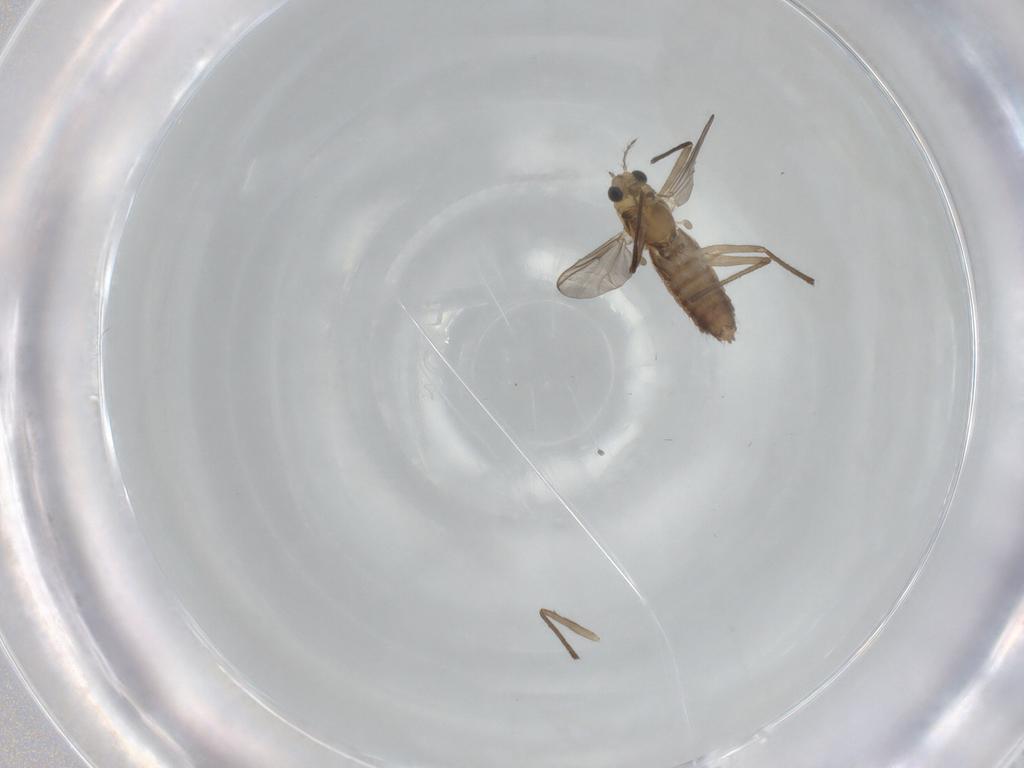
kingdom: Animalia
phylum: Arthropoda
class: Insecta
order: Diptera
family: Chironomidae
